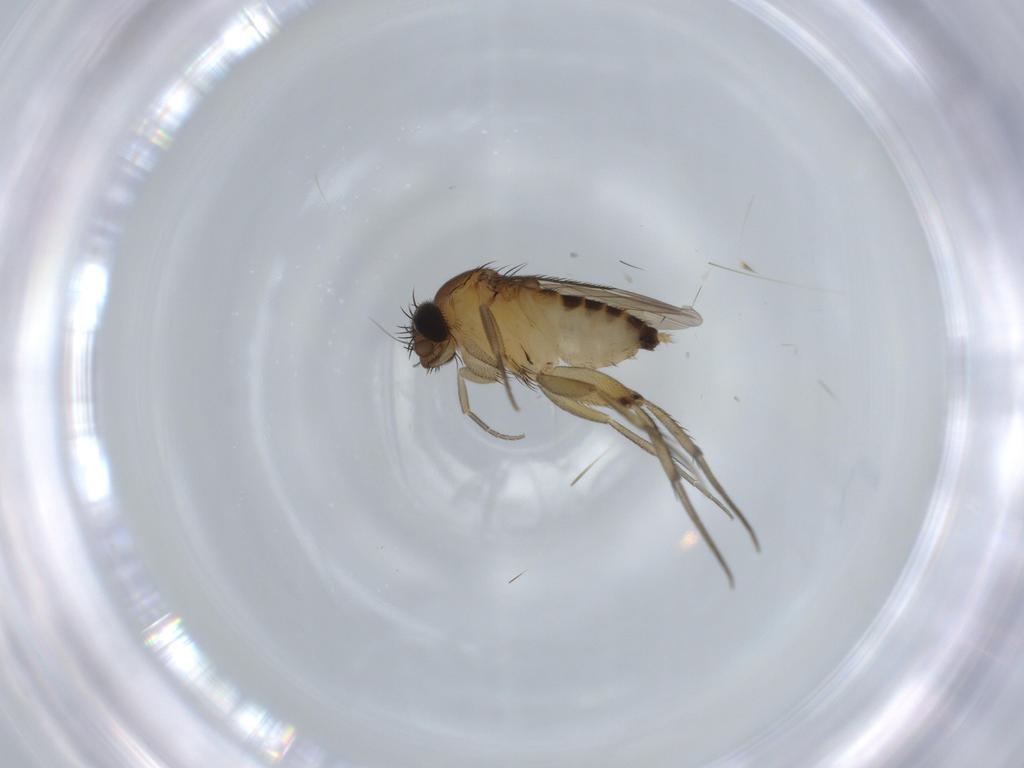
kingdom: Animalia
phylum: Arthropoda
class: Insecta
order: Diptera
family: Phoridae
